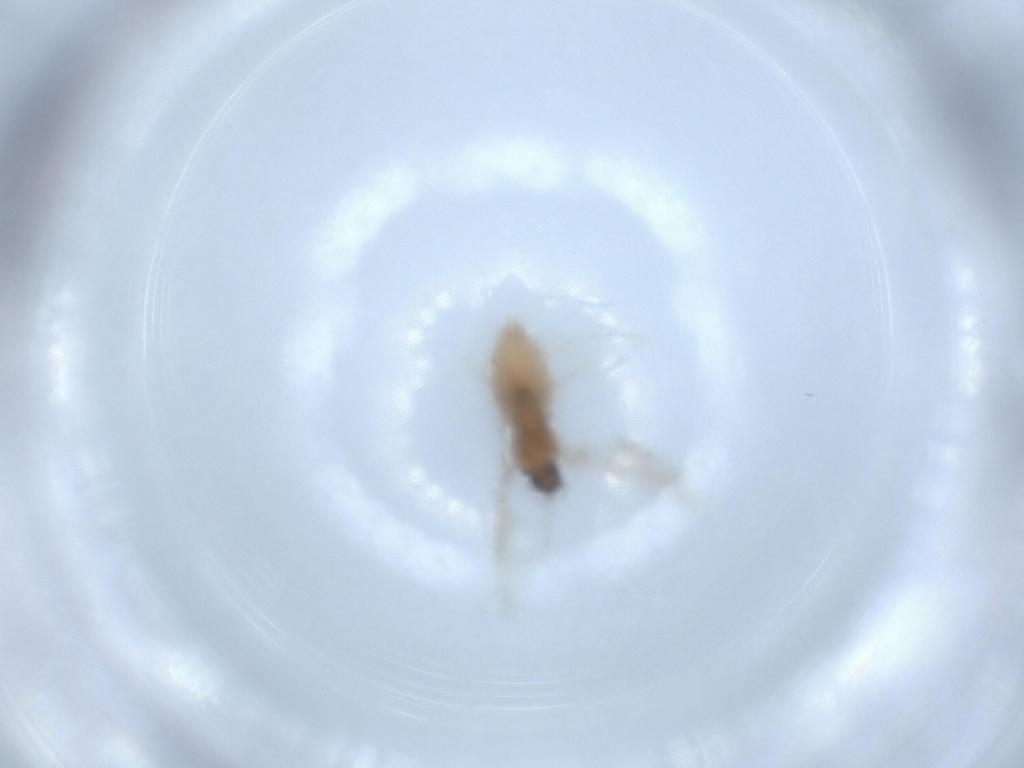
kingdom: Animalia
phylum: Arthropoda
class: Insecta
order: Diptera
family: Cecidomyiidae
